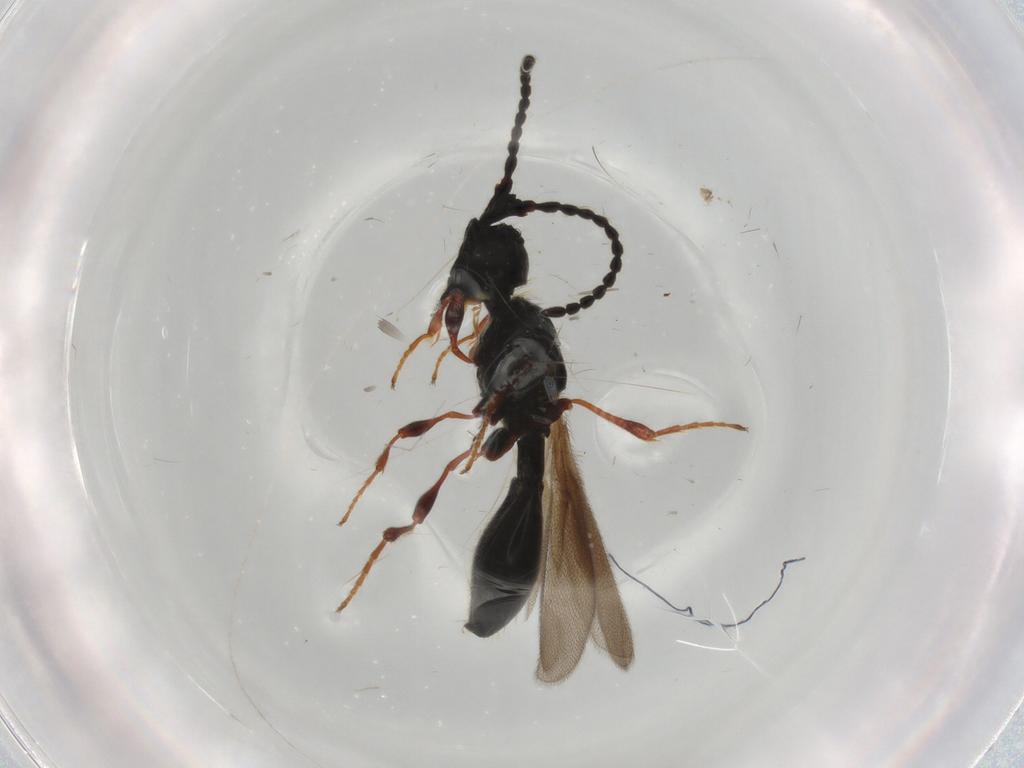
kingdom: Animalia
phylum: Arthropoda
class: Insecta
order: Hymenoptera
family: Diapriidae
